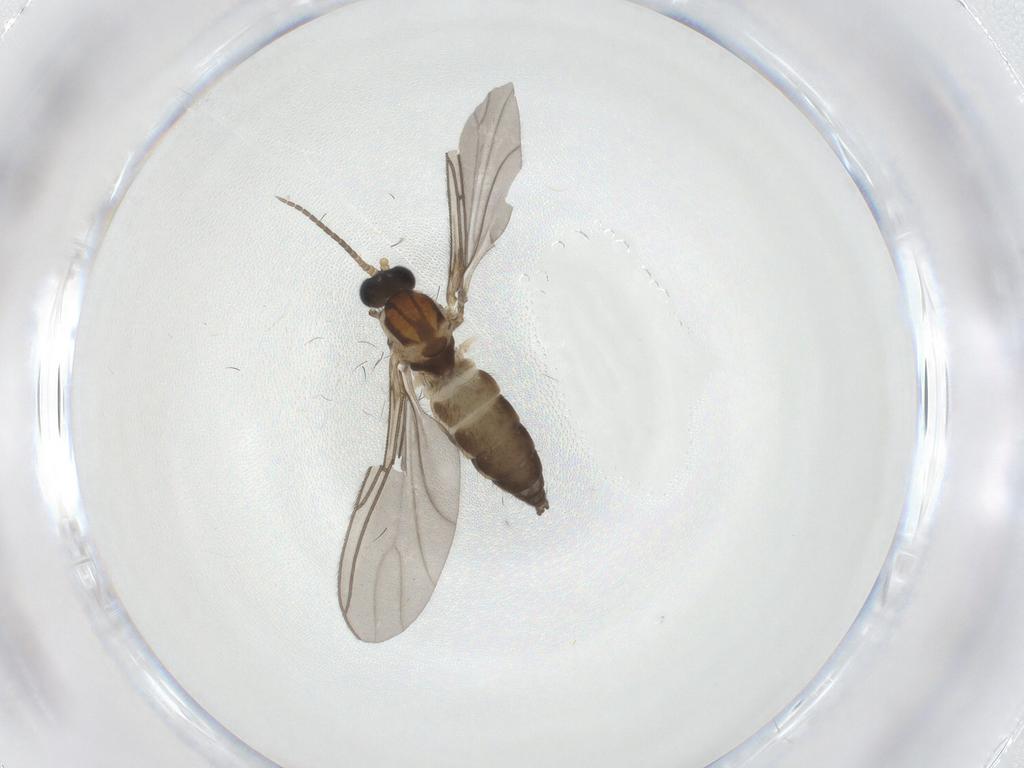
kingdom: Animalia
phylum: Arthropoda
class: Insecta
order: Diptera
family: Sciaridae
